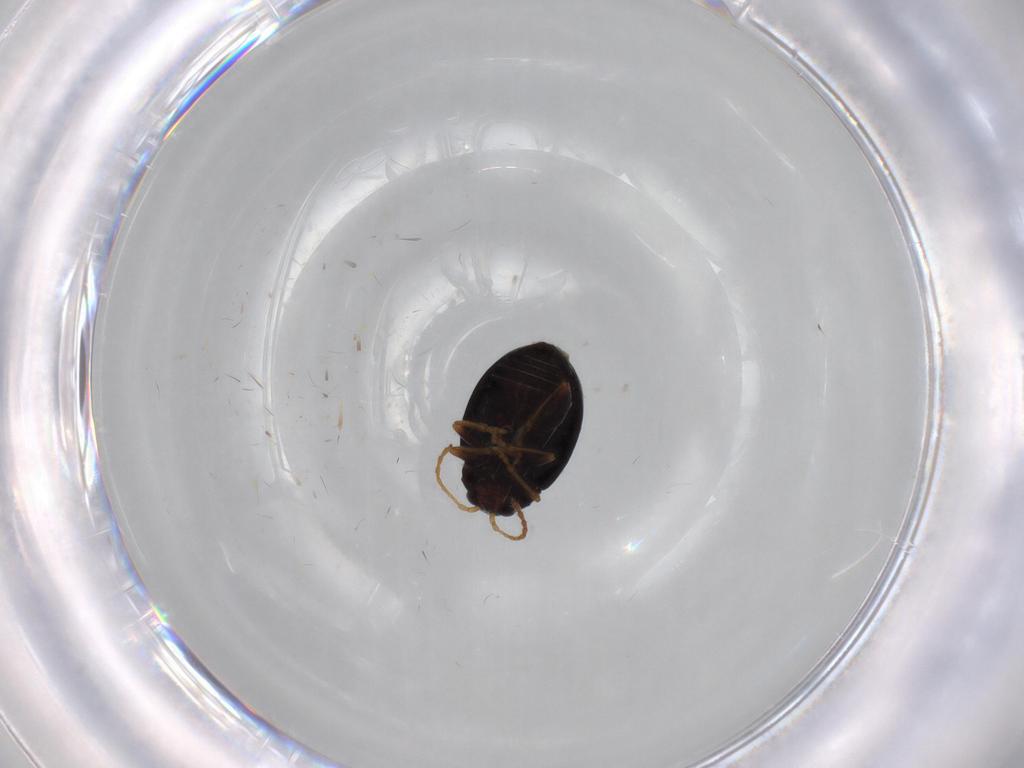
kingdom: Animalia
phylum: Arthropoda
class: Insecta
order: Coleoptera
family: Chrysomelidae
